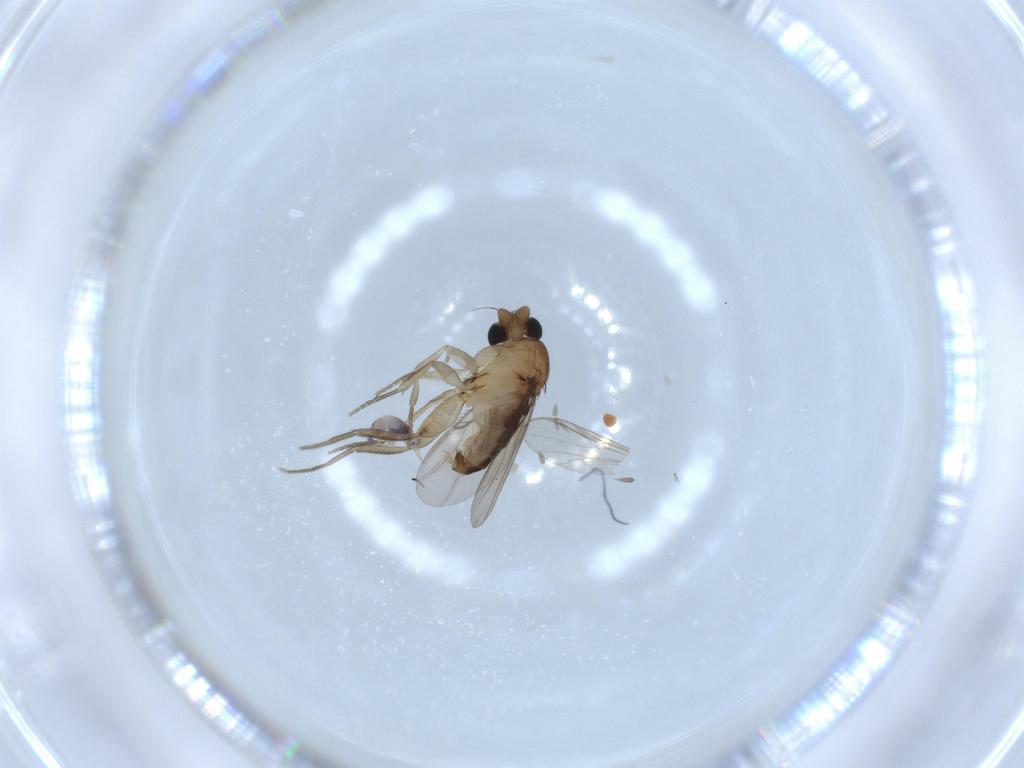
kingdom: Animalia
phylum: Arthropoda
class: Insecta
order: Diptera
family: Phoridae
